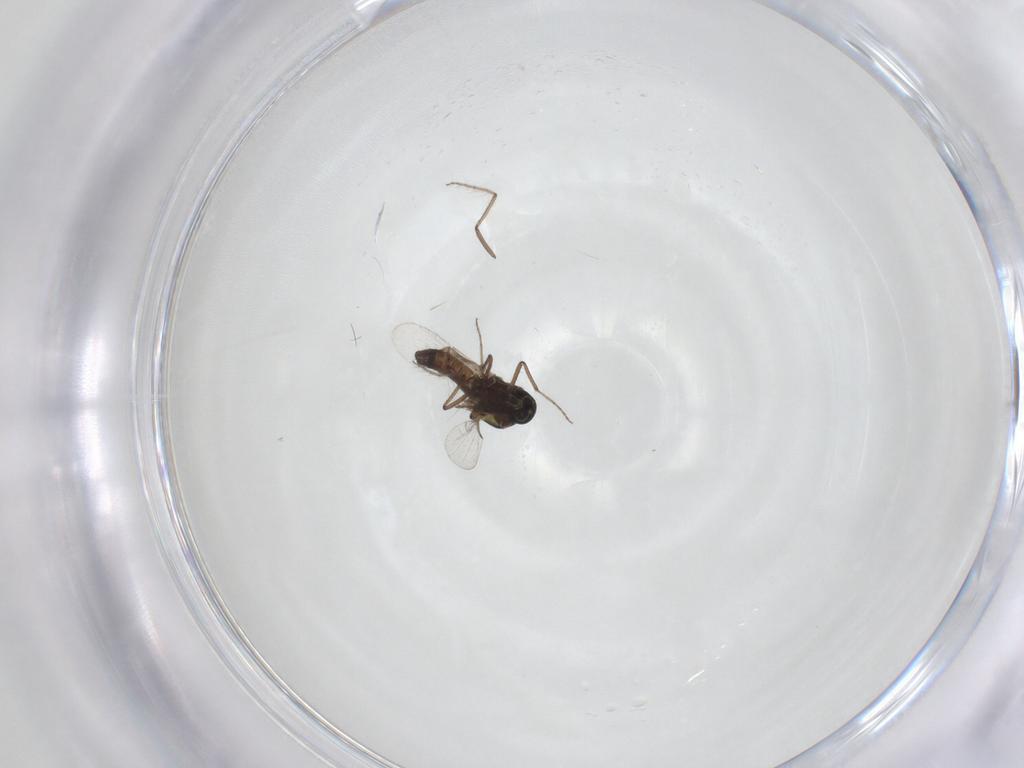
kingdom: Animalia
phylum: Arthropoda
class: Insecta
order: Diptera
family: Ceratopogonidae
